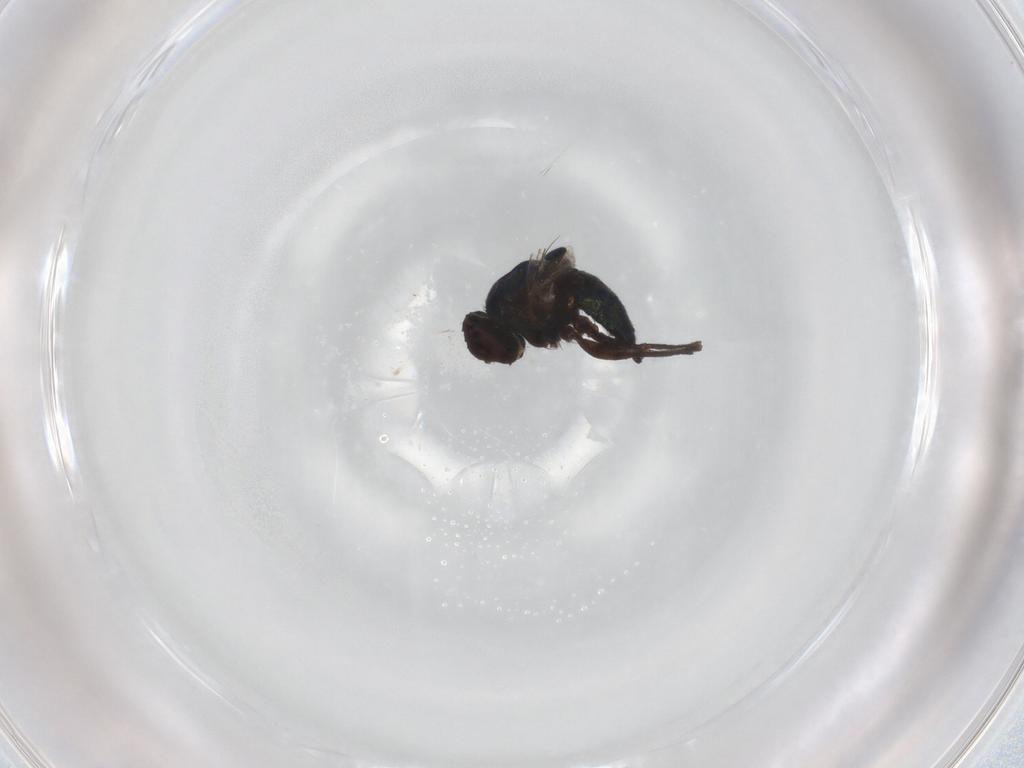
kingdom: Animalia
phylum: Arthropoda
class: Insecta
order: Diptera
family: Agromyzidae
